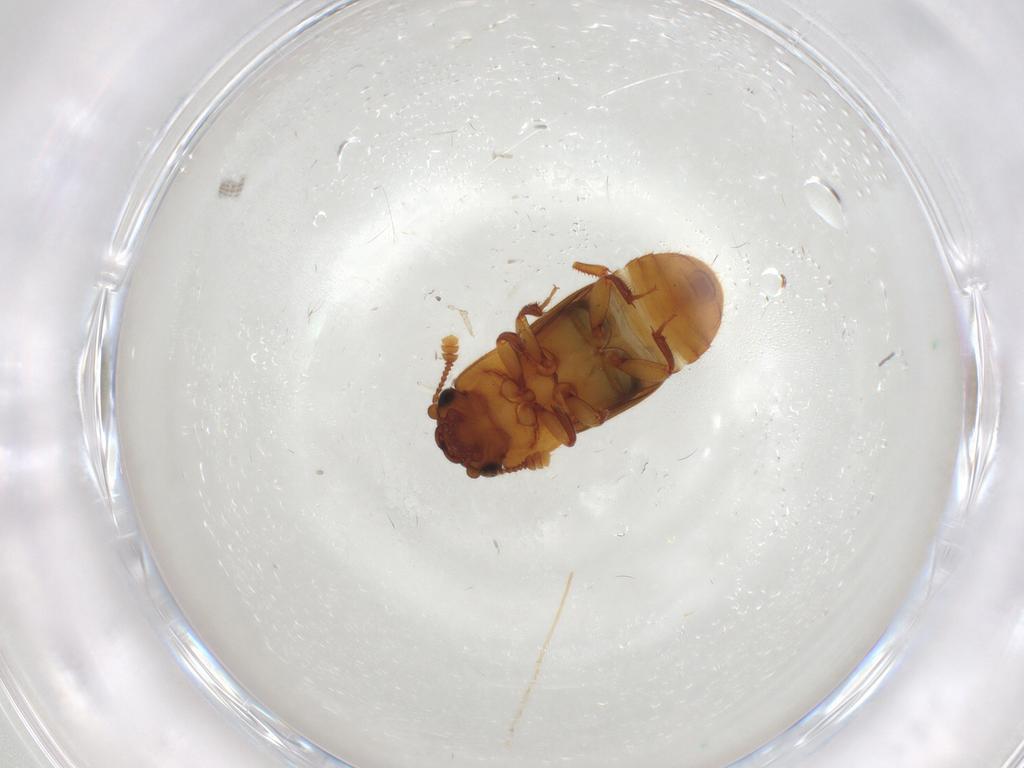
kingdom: Animalia
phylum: Arthropoda
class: Insecta
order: Coleoptera
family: Nitidulidae
